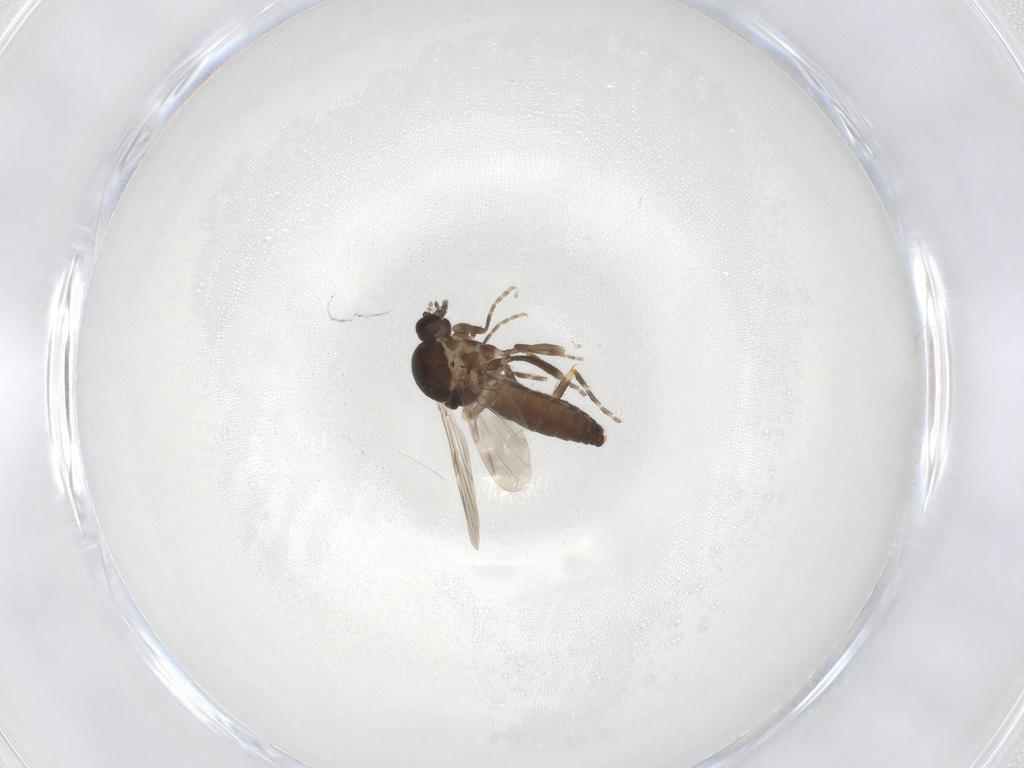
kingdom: Animalia
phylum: Arthropoda
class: Insecta
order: Diptera
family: Ceratopogonidae
